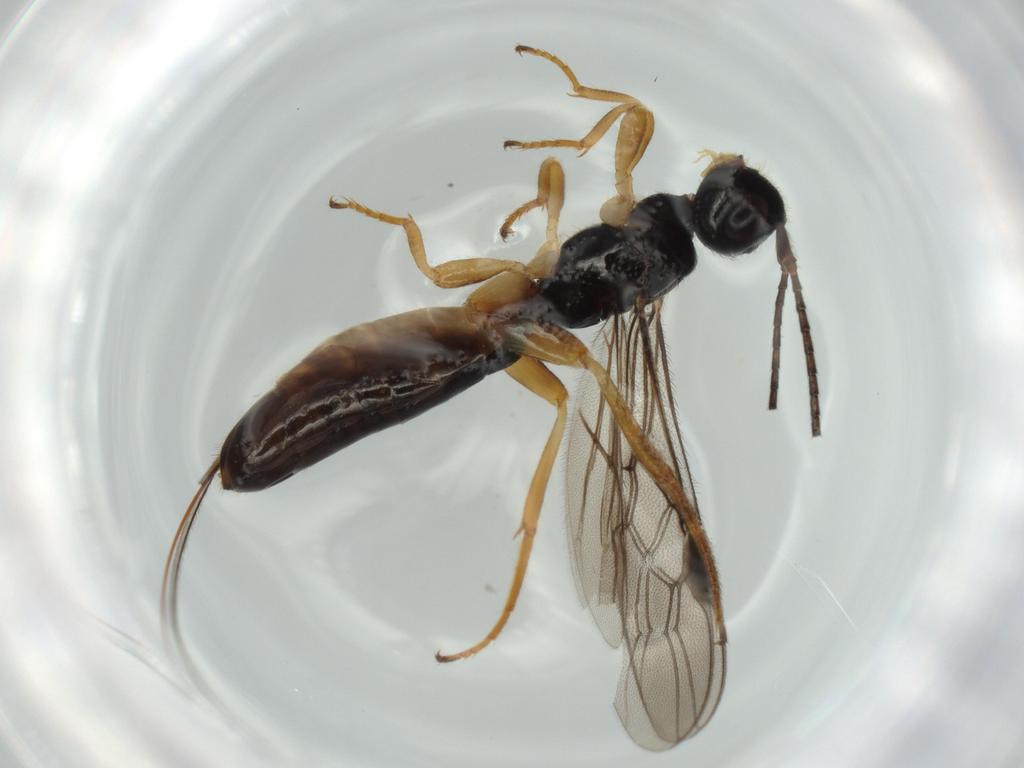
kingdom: Animalia
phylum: Arthropoda
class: Insecta
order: Hymenoptera
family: Braconidae
